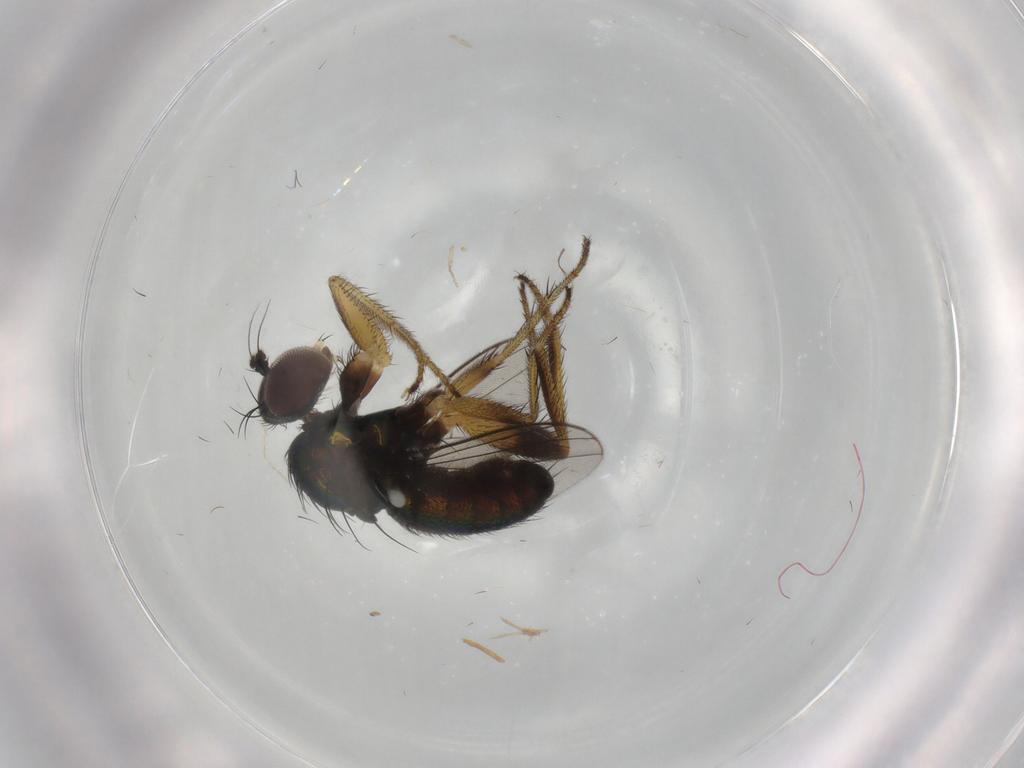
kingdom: Animalia
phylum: Arthropoda
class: Insecta
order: Diptera
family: Dolichopodidae
